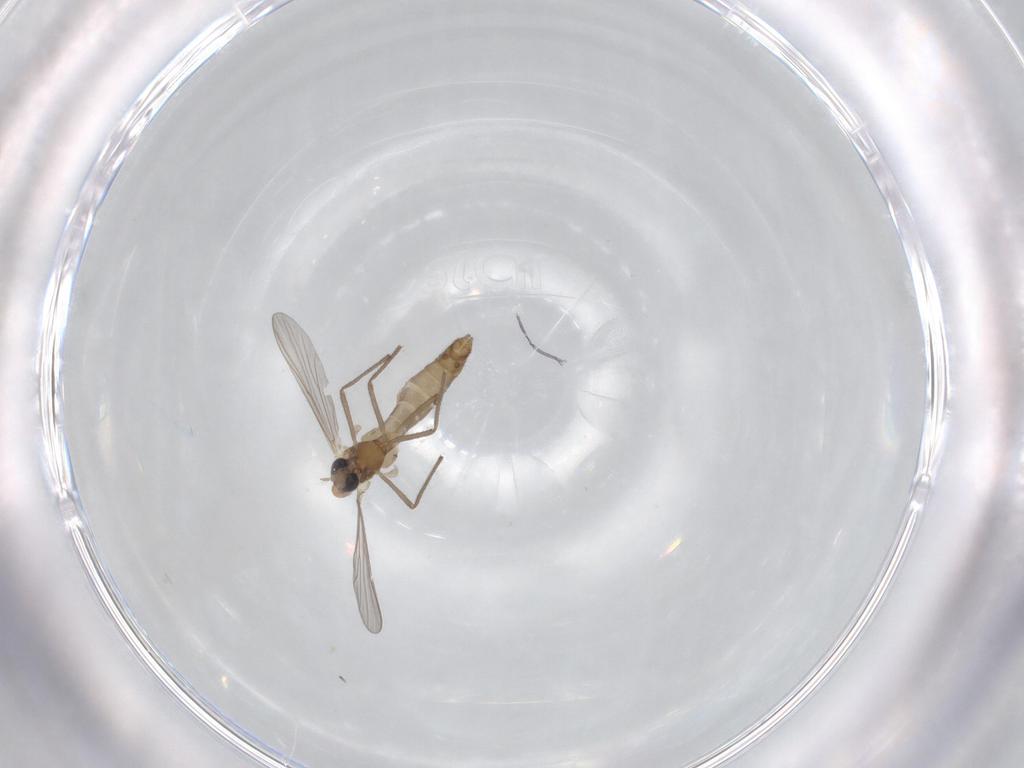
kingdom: Animalia
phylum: Arthropoda
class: Insecta
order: Diptera
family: Chironomidae
